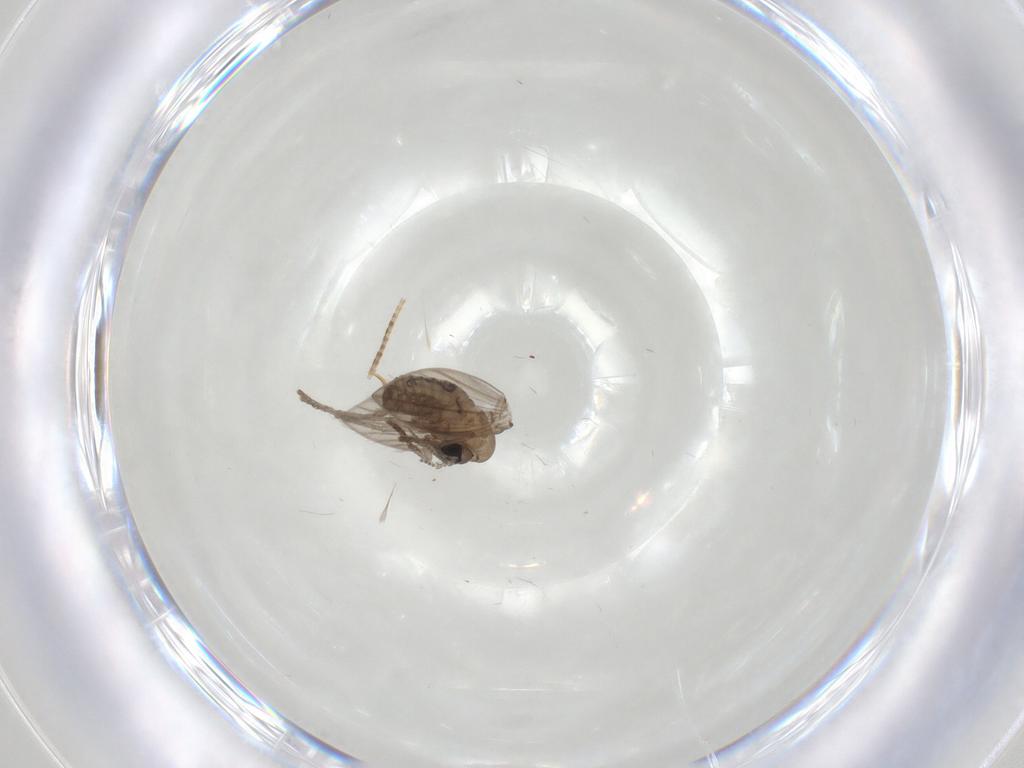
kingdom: Animalia
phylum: Arthropoda
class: Insecta
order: Diptera
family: Psychodidae
